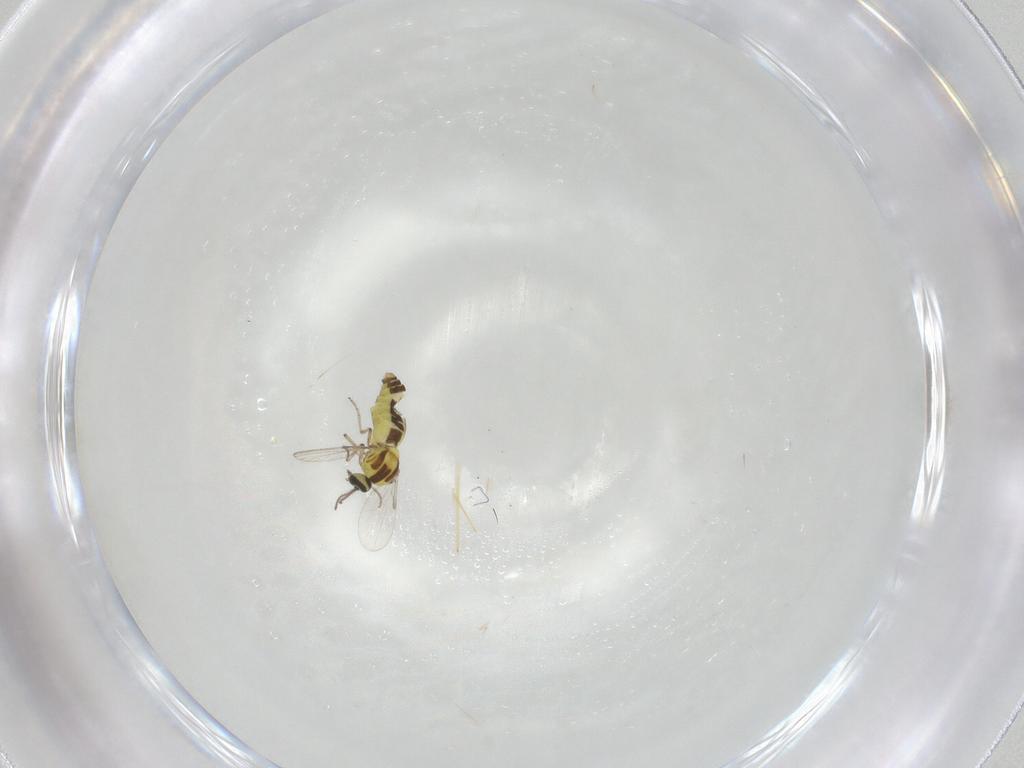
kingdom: Animalia
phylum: Arthropoda
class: Insecta
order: Diptera
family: Ceratopogonidae
